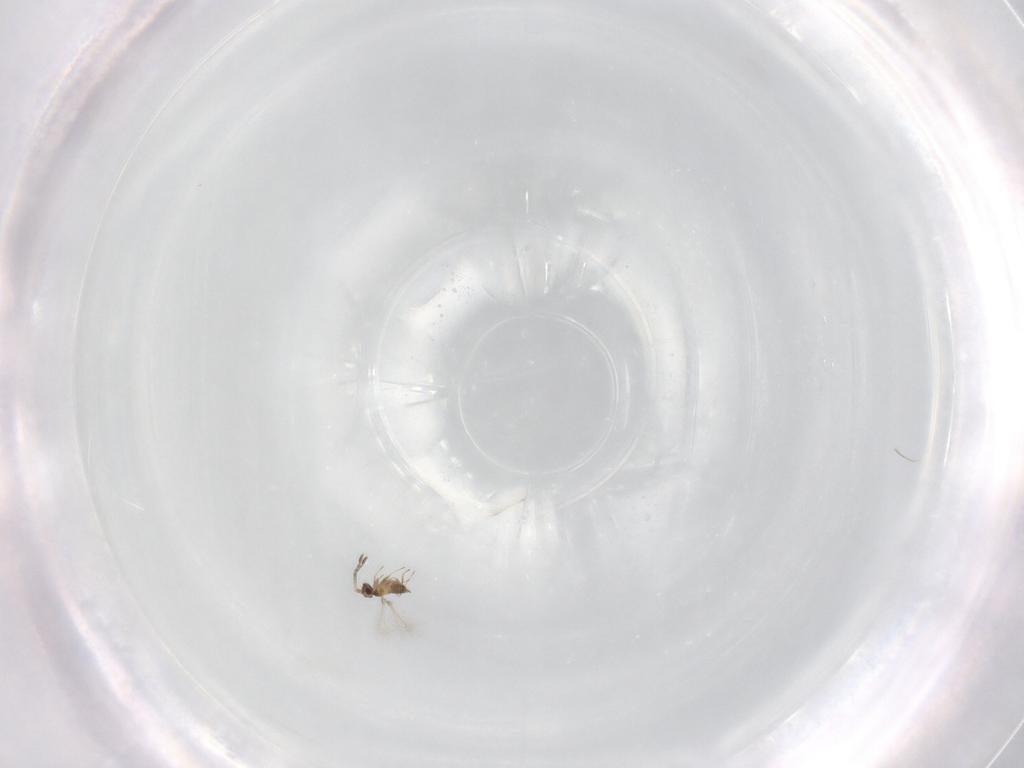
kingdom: Animalia
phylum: Arthropoda
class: Insecta
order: Hymenoptera
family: Mymaridae
